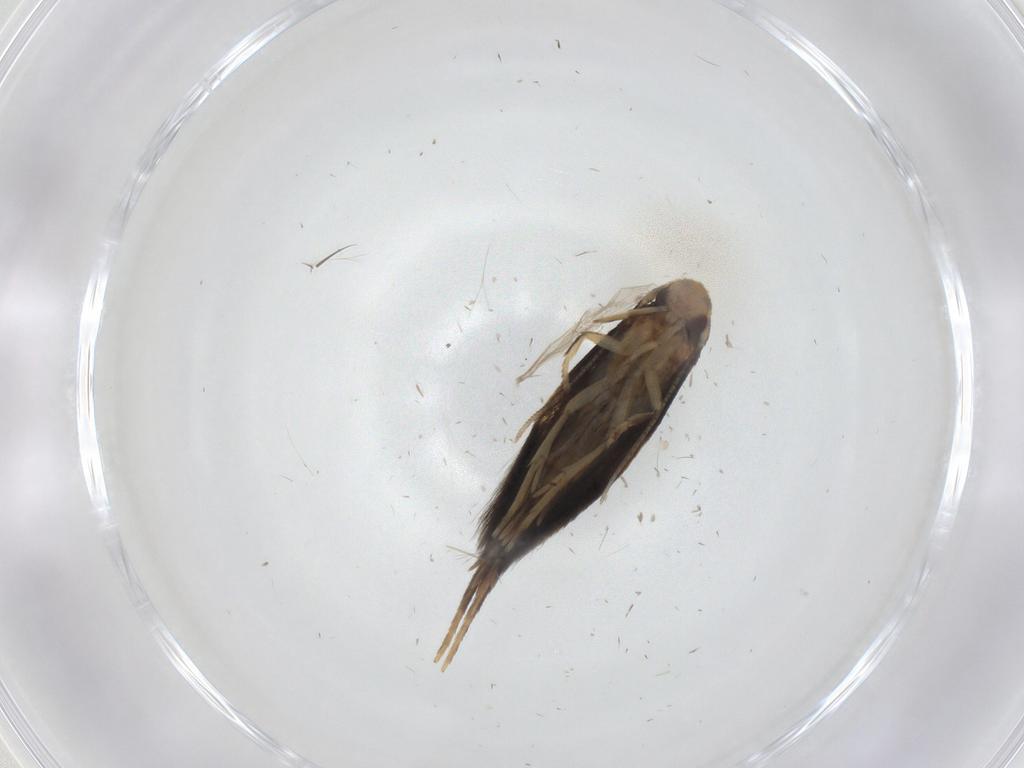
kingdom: Animalia
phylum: Arthropoda
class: Insecta
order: Lepidoptera
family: Gelechiidae
